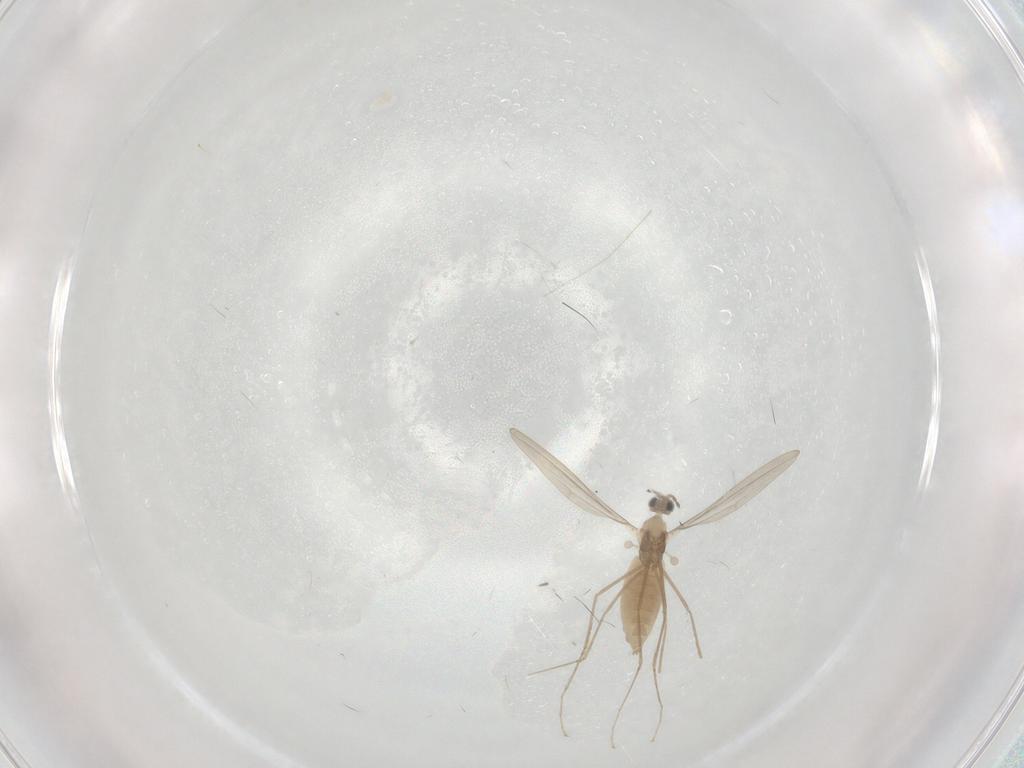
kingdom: Animalia
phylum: Arthropoda
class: Insecta
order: Diptera
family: Cecidomyiidae
